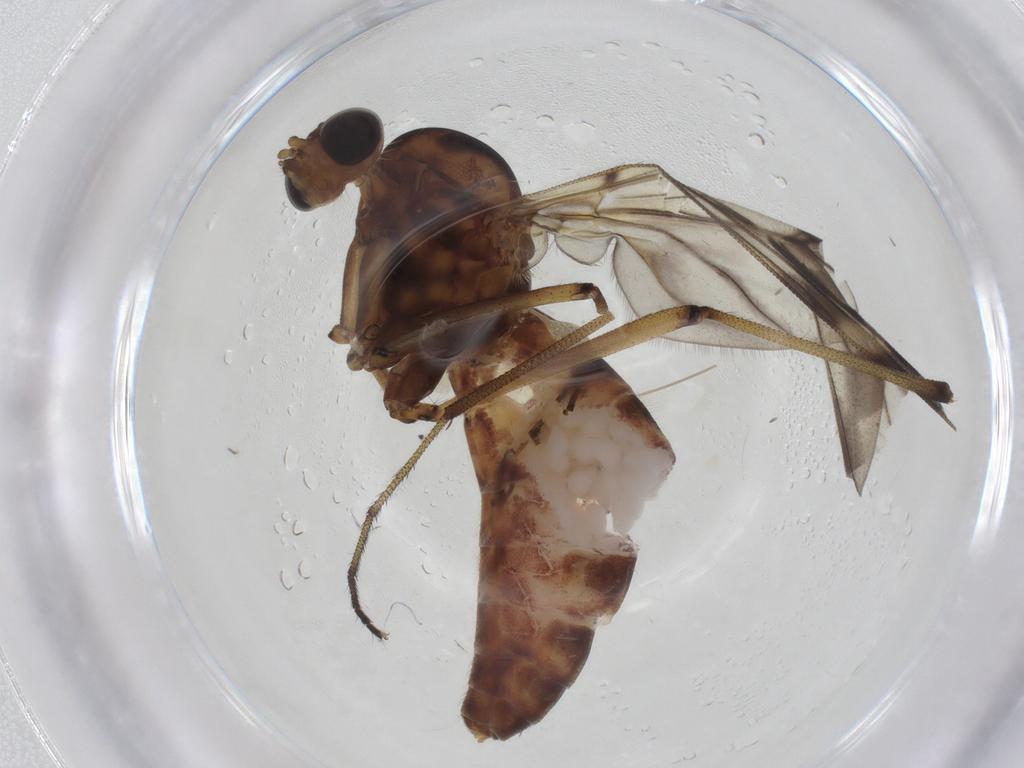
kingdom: Animalia
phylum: Arthropoda
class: Insecta
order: Diptera
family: Anisopodidae
